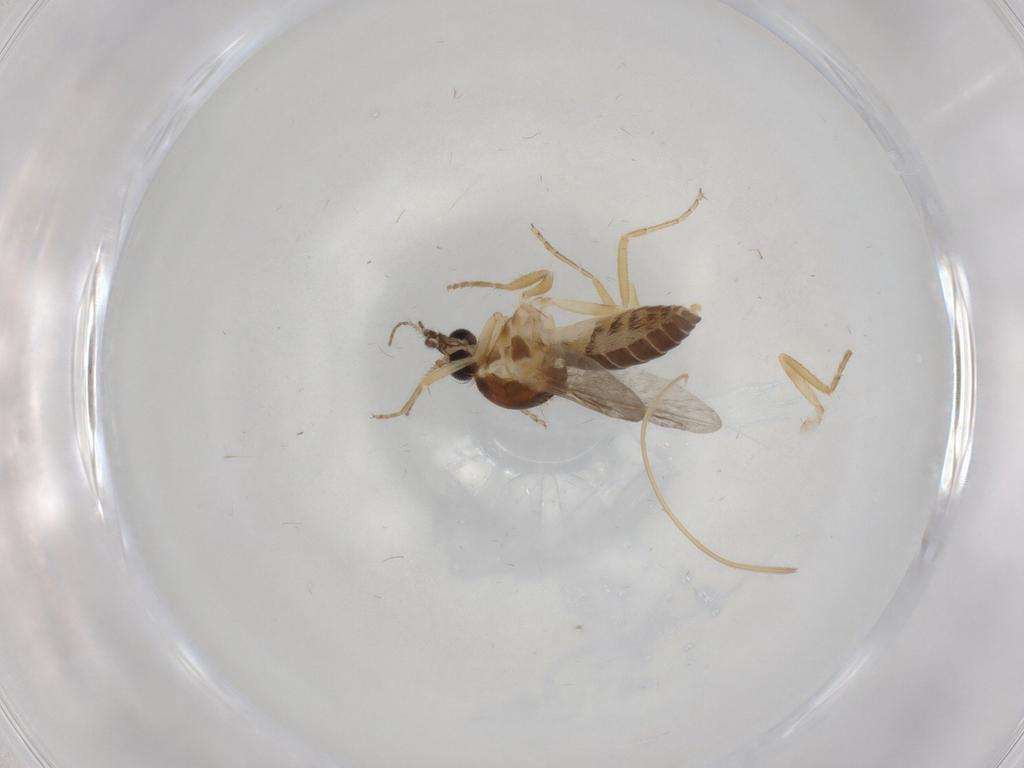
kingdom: Animalia
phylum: Arthropoda
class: Insecta
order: Diptera
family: Ceratopogonidae
